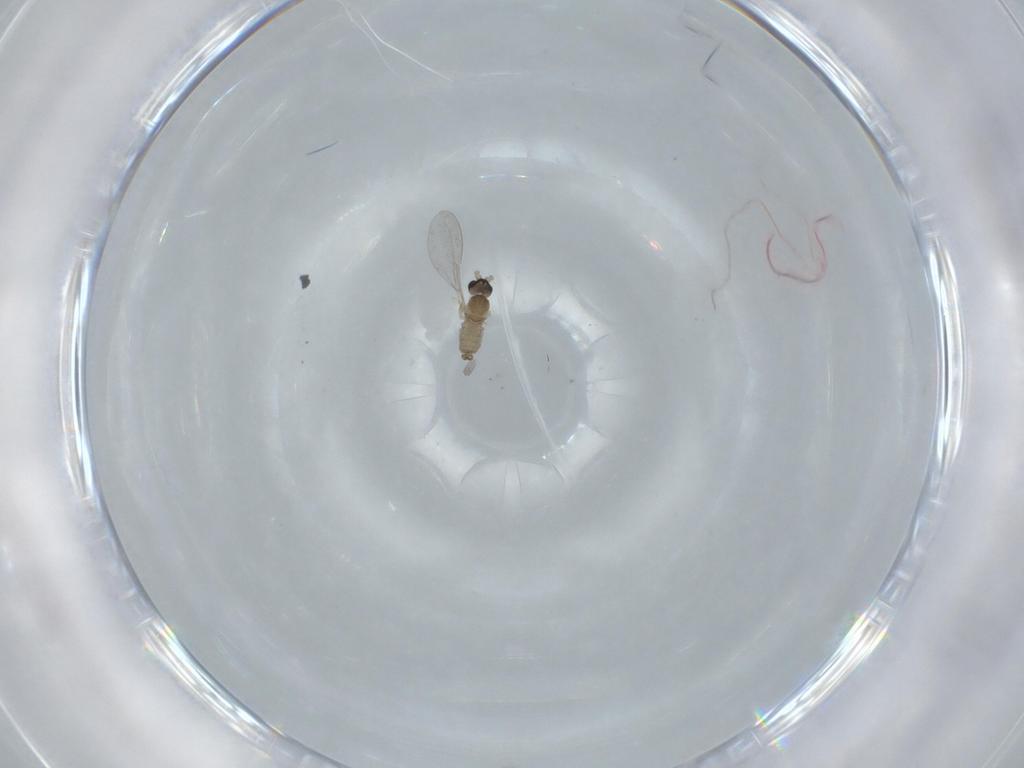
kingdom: Animalia
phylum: Arthropoda
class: Insecta
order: Diptera
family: Cecidomyiidae
